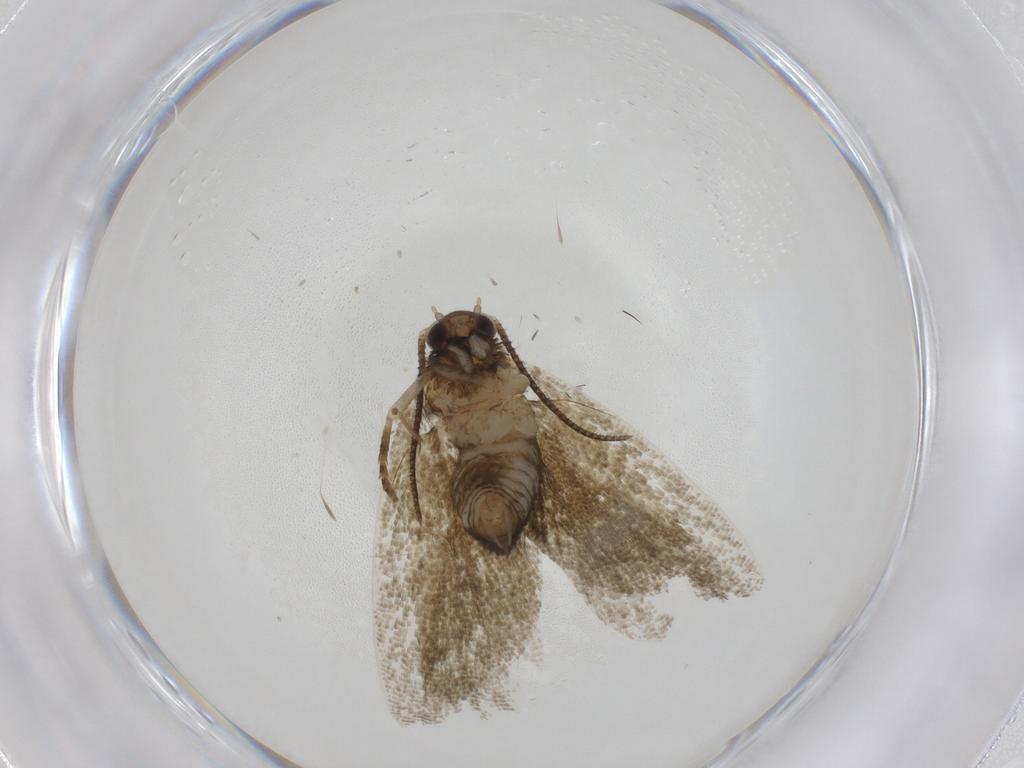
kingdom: Animalia
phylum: Arthropoda
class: Insecta
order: Lepidoptera
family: Tortricidae
